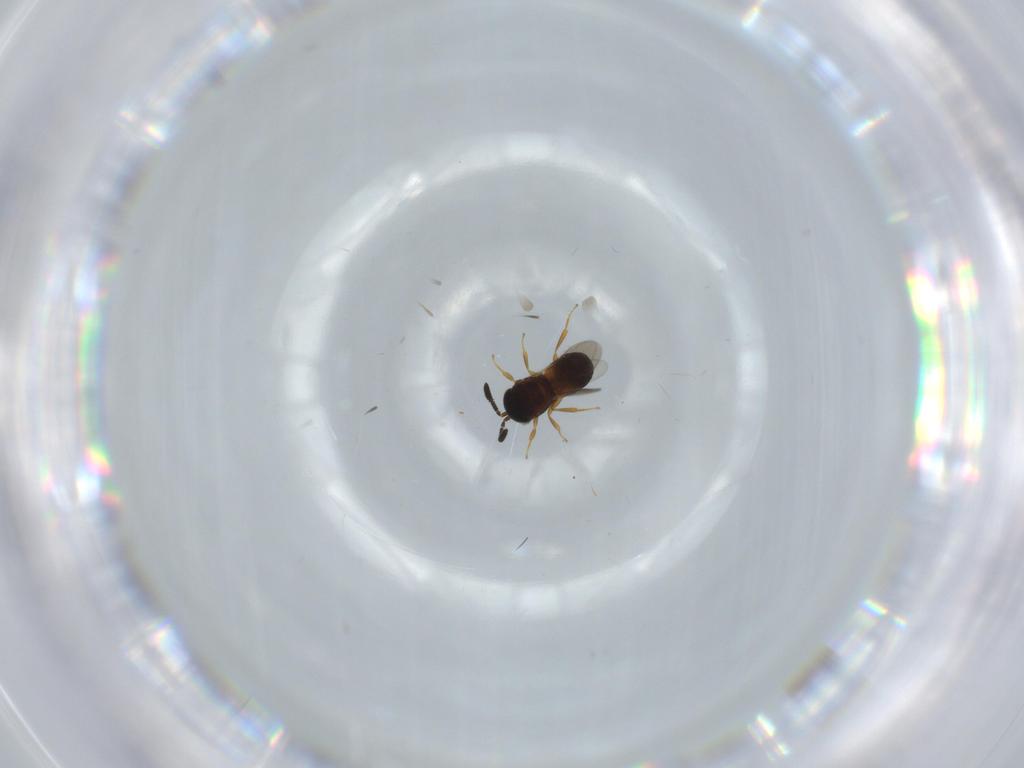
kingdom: Animalia
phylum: Arthropoda
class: Insecta
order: Hymenoptera
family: Scelionidae
